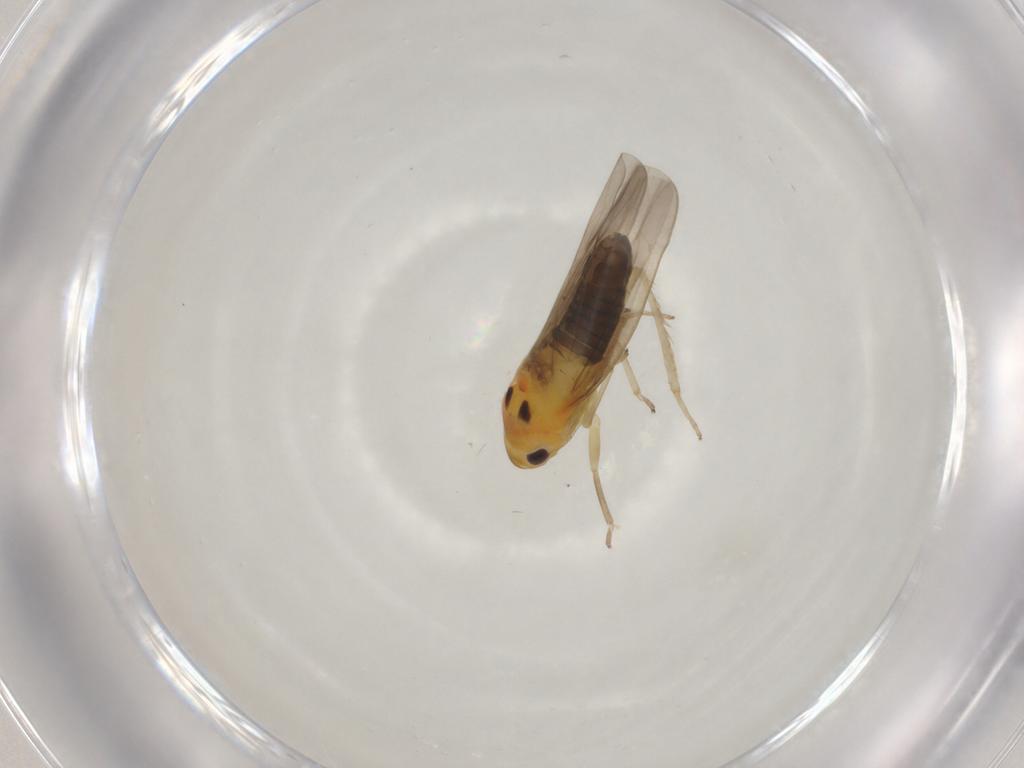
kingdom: Animalia
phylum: Arthropoda
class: Insecta
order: Hemiptera
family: Cicadellidae
